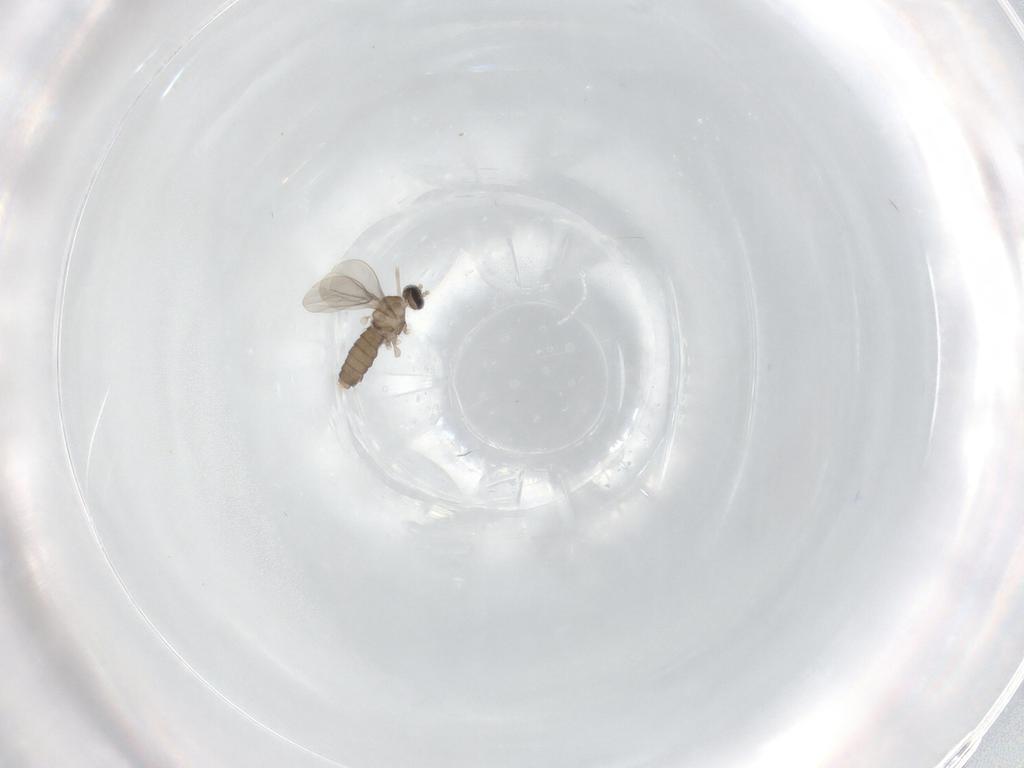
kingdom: Animalia
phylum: Arthropoda
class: Insecta
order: Diptera
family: Cecidomyiidae
